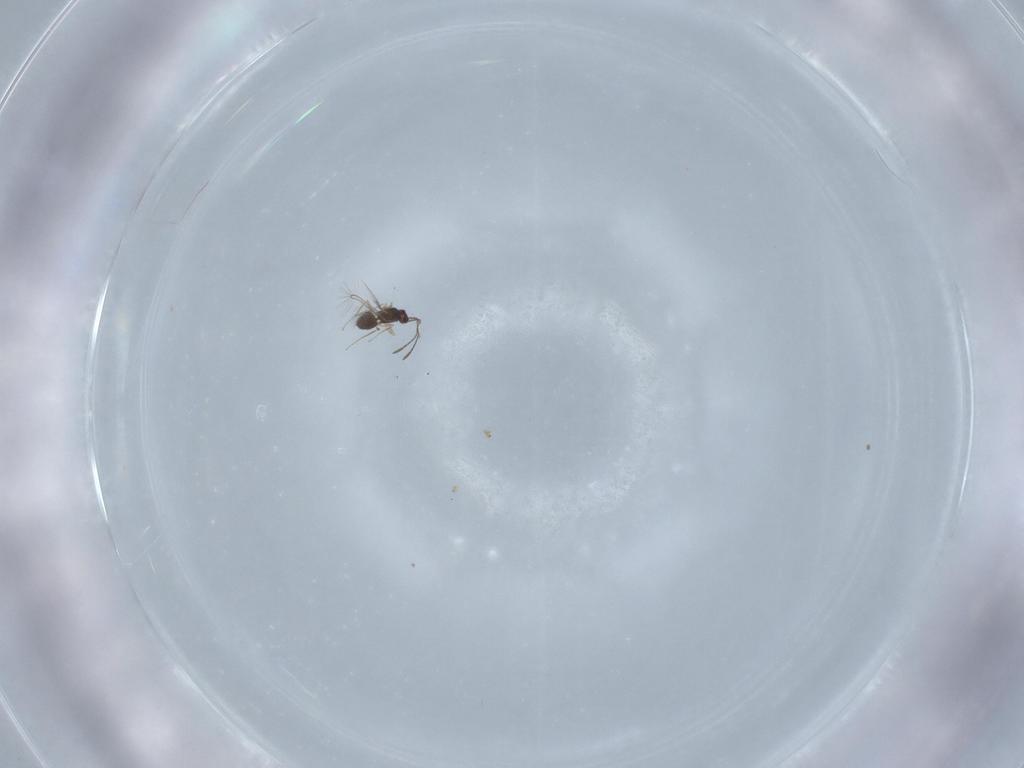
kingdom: Animalia
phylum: Arthropoda
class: Insecta
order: Hymenoptera
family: Mymaridae
